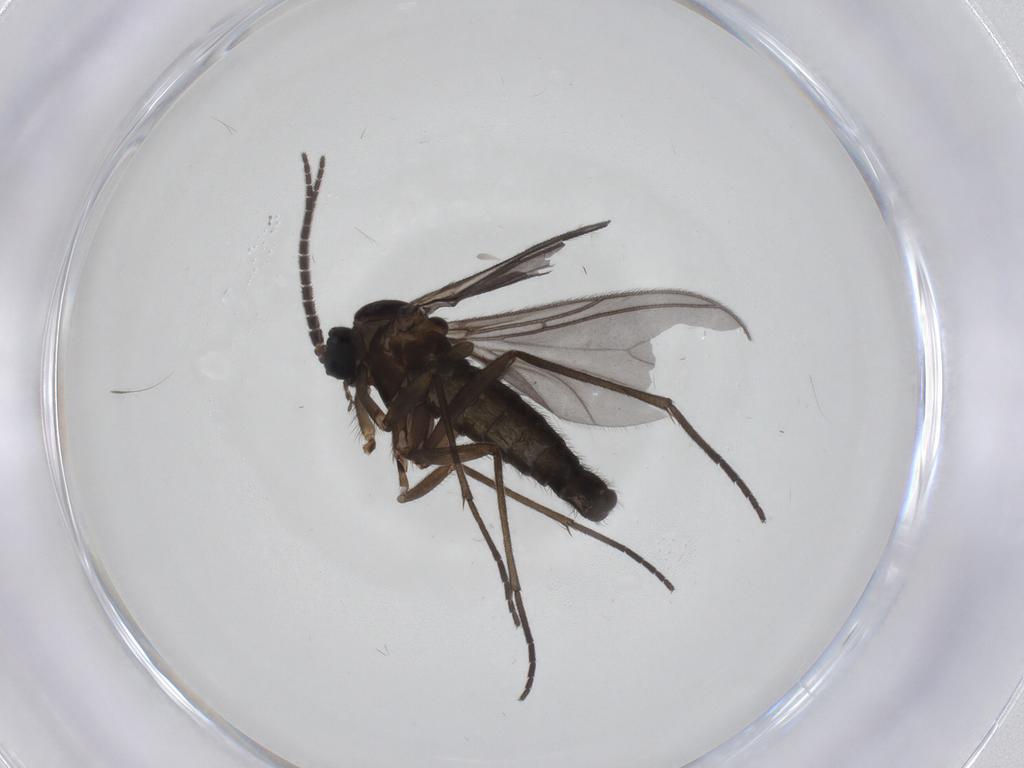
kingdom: Animalia
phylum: Arthropoda
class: Insecta
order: Diptera
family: Sciaridae
